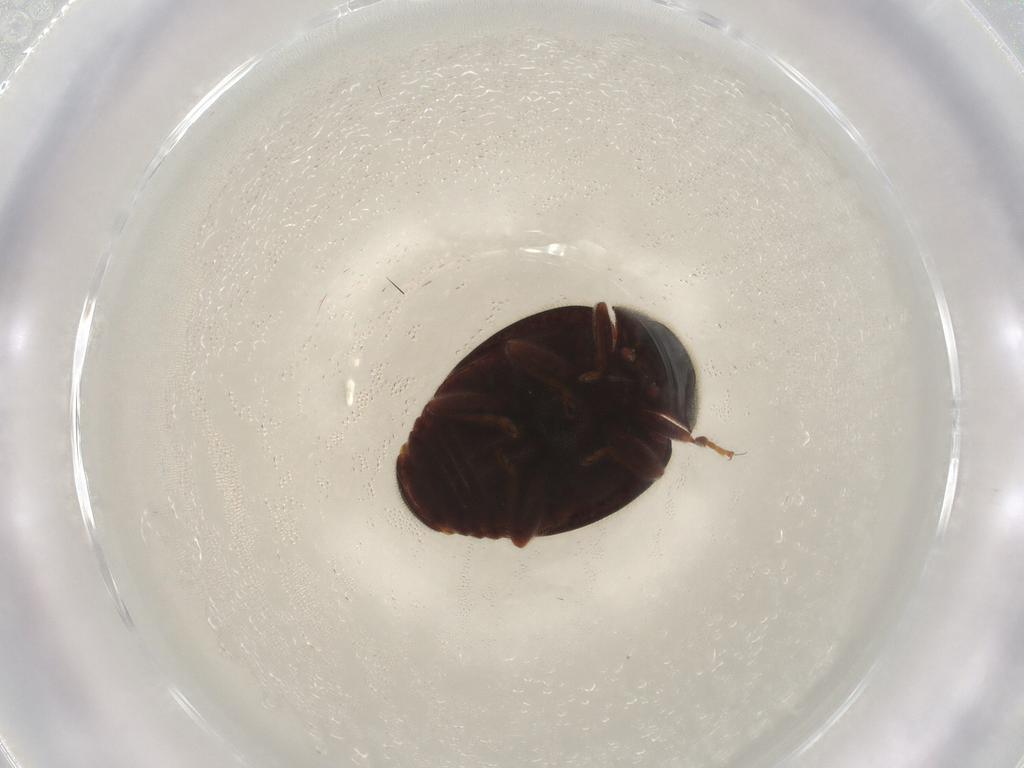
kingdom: Animalia
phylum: Arthropoda
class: Insecta
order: Coleoptera
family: Coccinellidae
